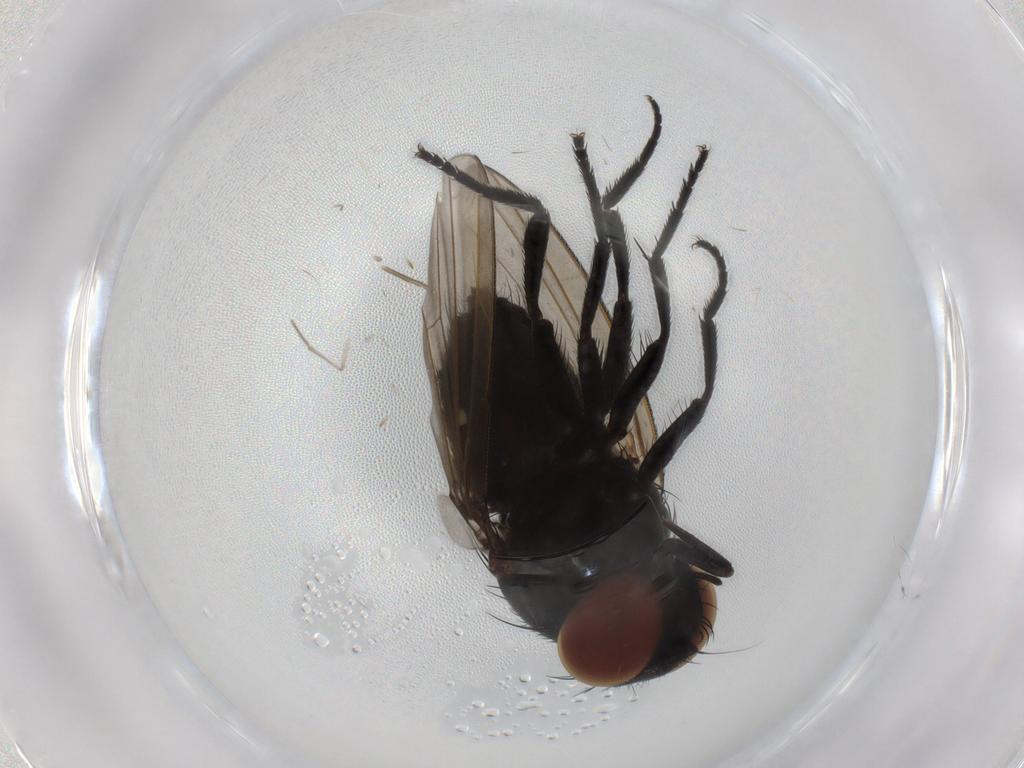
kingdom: Animalia
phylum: Arthropoda
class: Insecta
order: Diptera
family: Milichiidae
